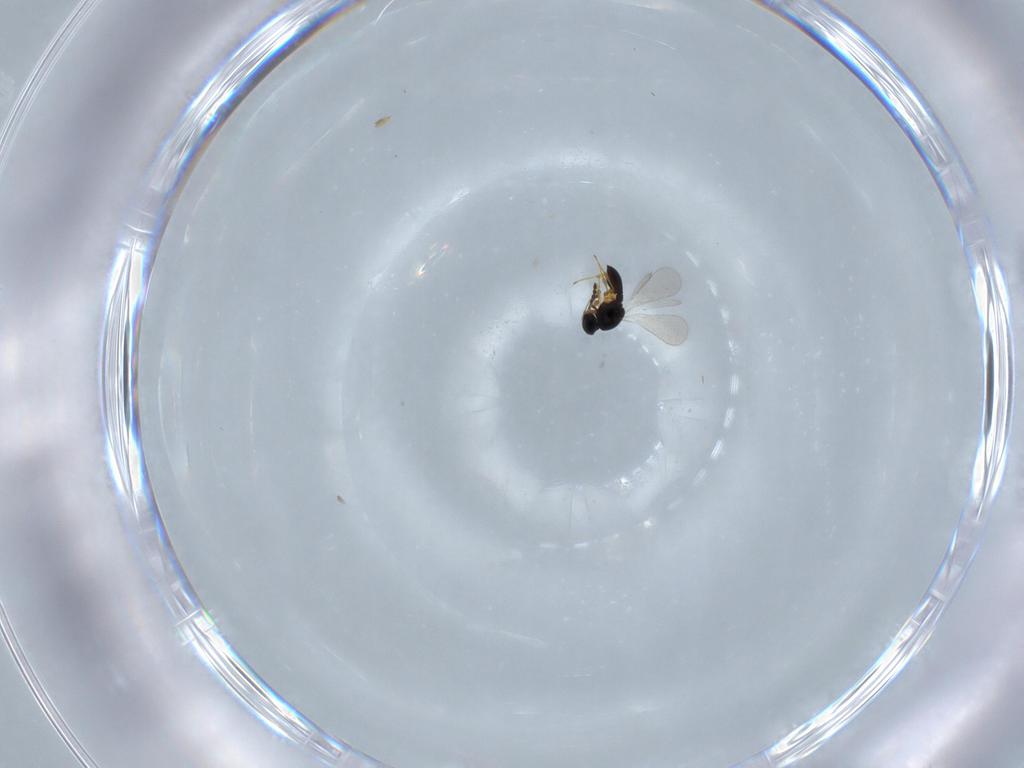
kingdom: Animalia
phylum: Arthropoda
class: Insecta
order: Hymenoptera
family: Platygastridae
